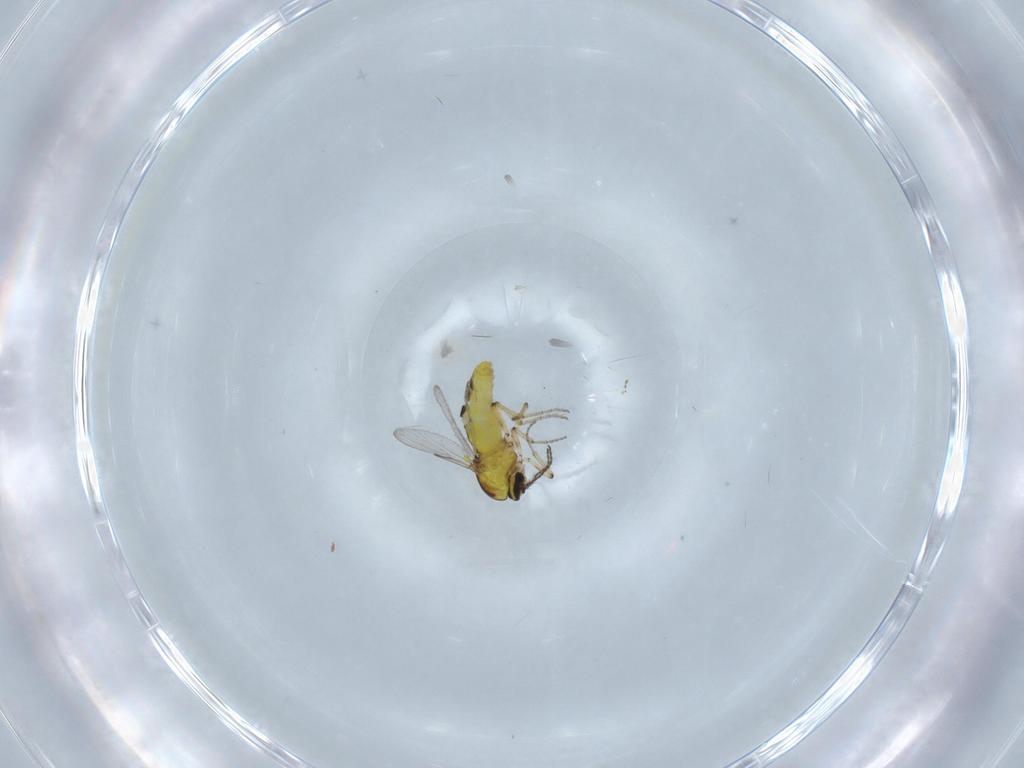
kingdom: Animalia
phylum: Arthropoda
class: Insecta
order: Diptera
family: Ceratopogonidae
